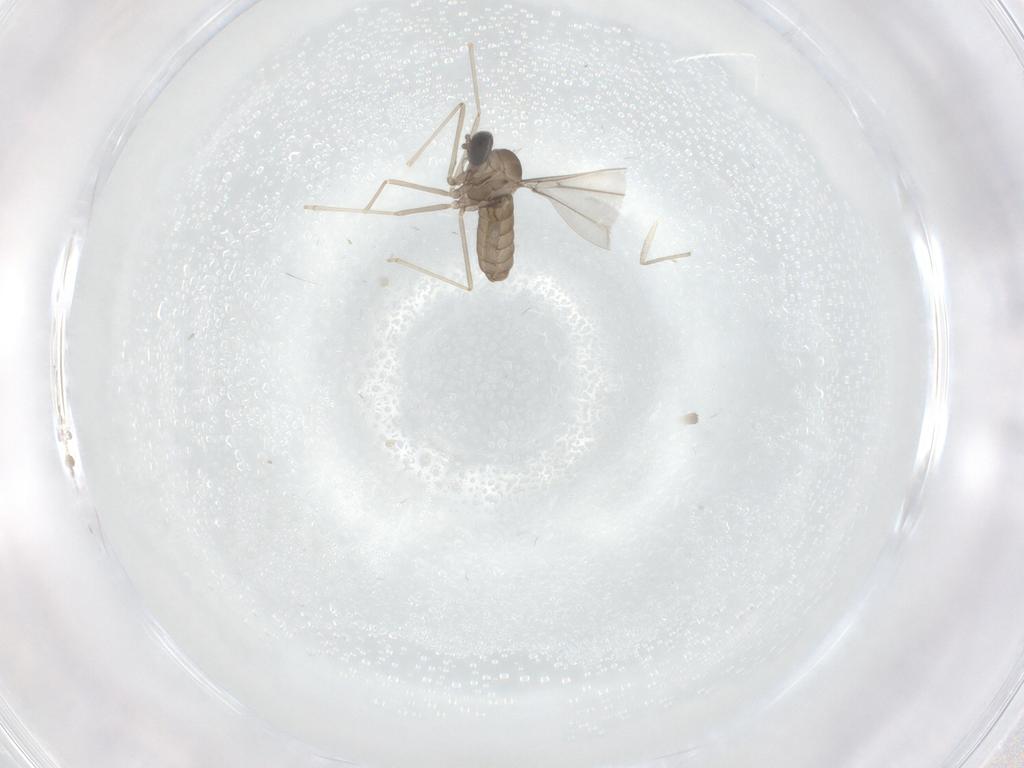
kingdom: Animalia
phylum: Arthropoda
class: Insecta
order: Diptera
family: Cecidomyiidae
